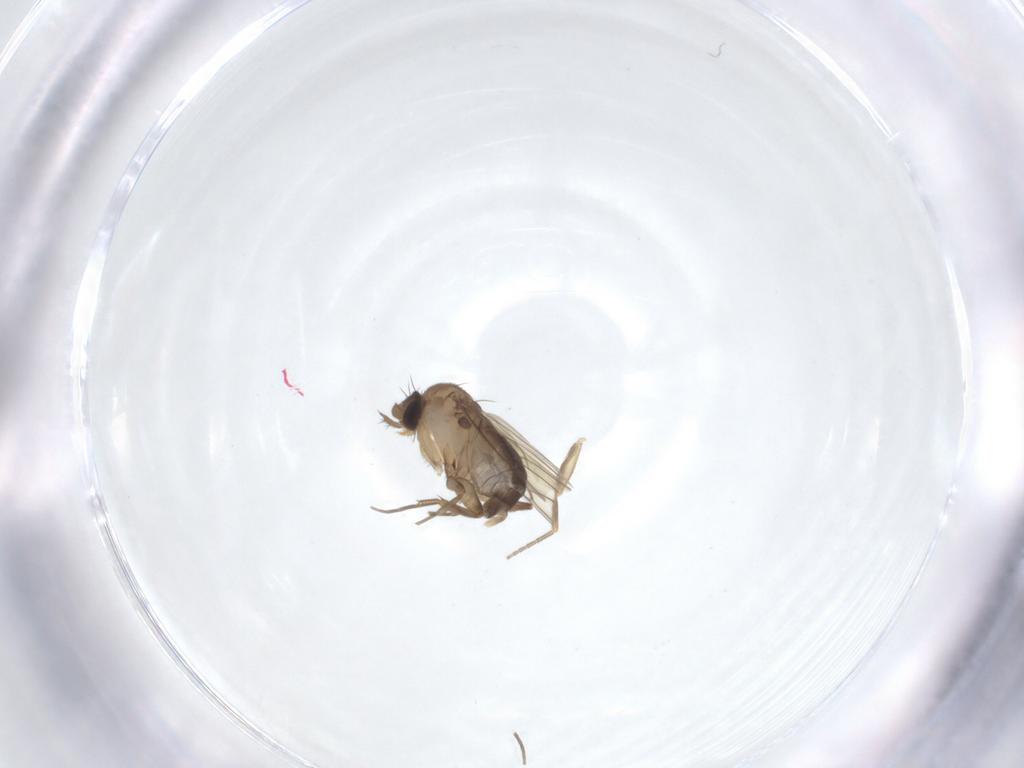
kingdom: Animalia
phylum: Arthropoda
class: Insecta
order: Diptera
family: Phoridae
